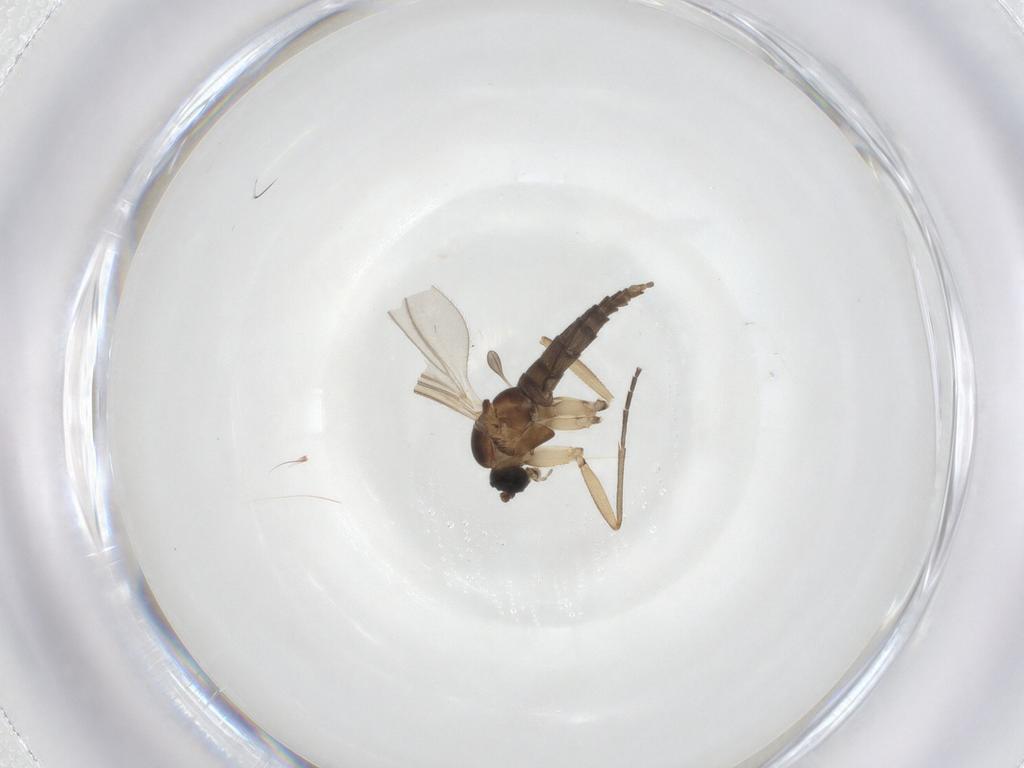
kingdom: Animalia
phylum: Arthropoda
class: Insecta
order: Diptera
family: Sciaridae
